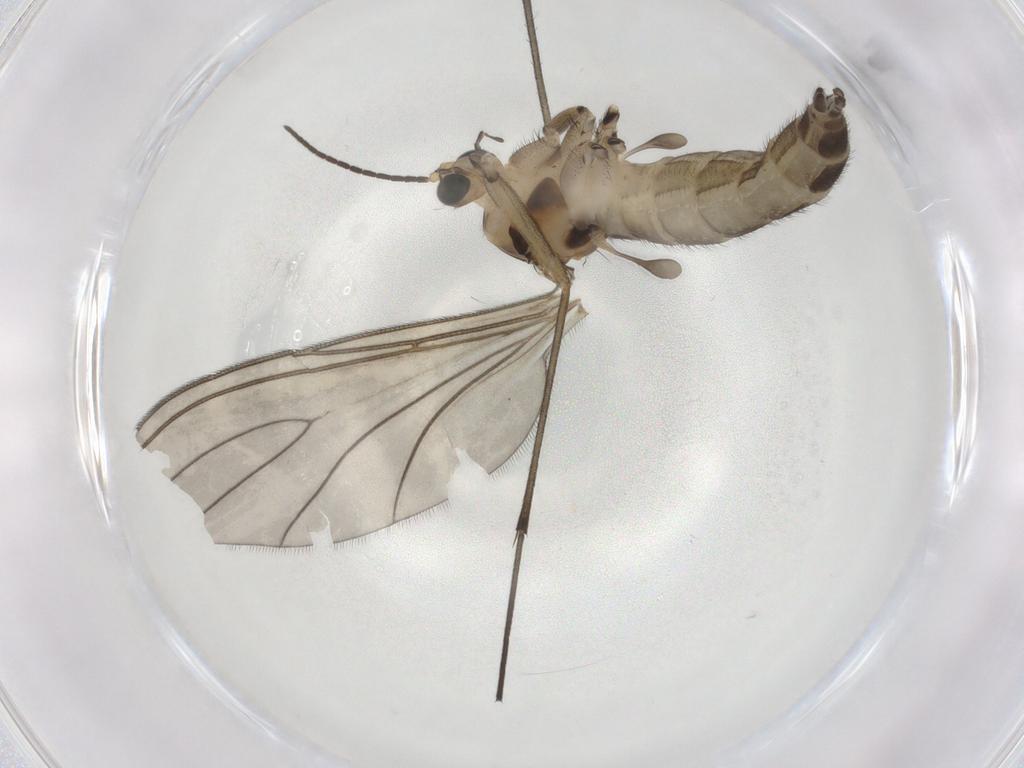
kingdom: Animalia
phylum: Arthropoda
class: Insecta
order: Diptera
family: Sciaridae
